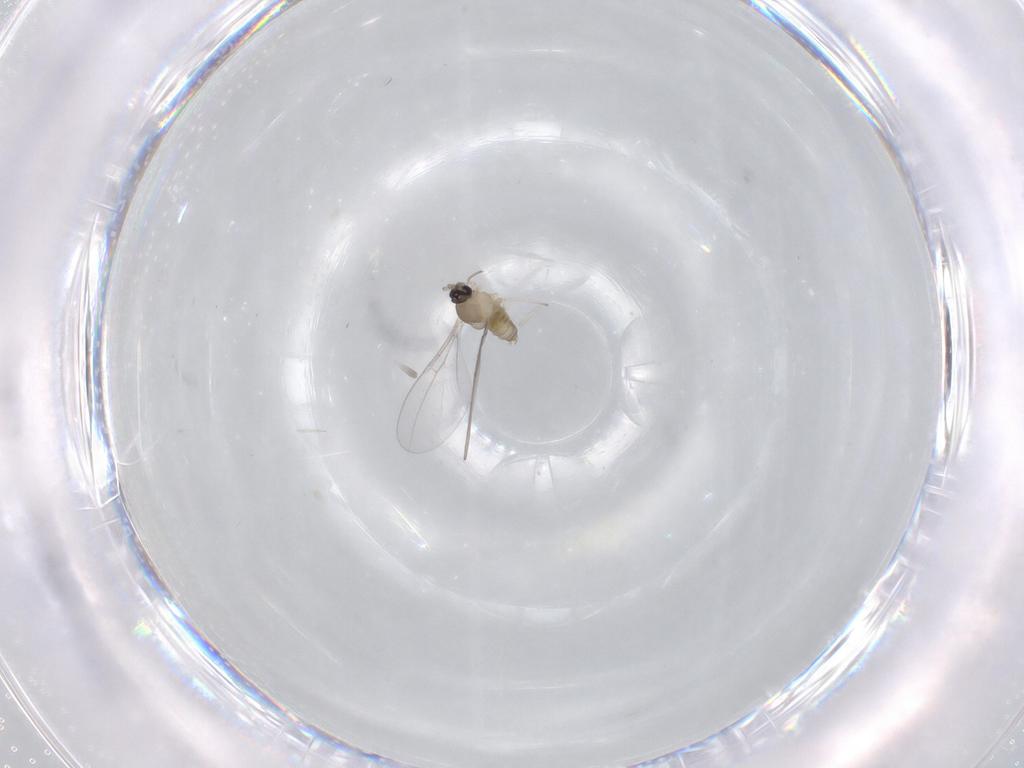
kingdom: Animalia
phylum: Arthropoda
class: Insecta
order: Diptera
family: Cecidomyiidae
